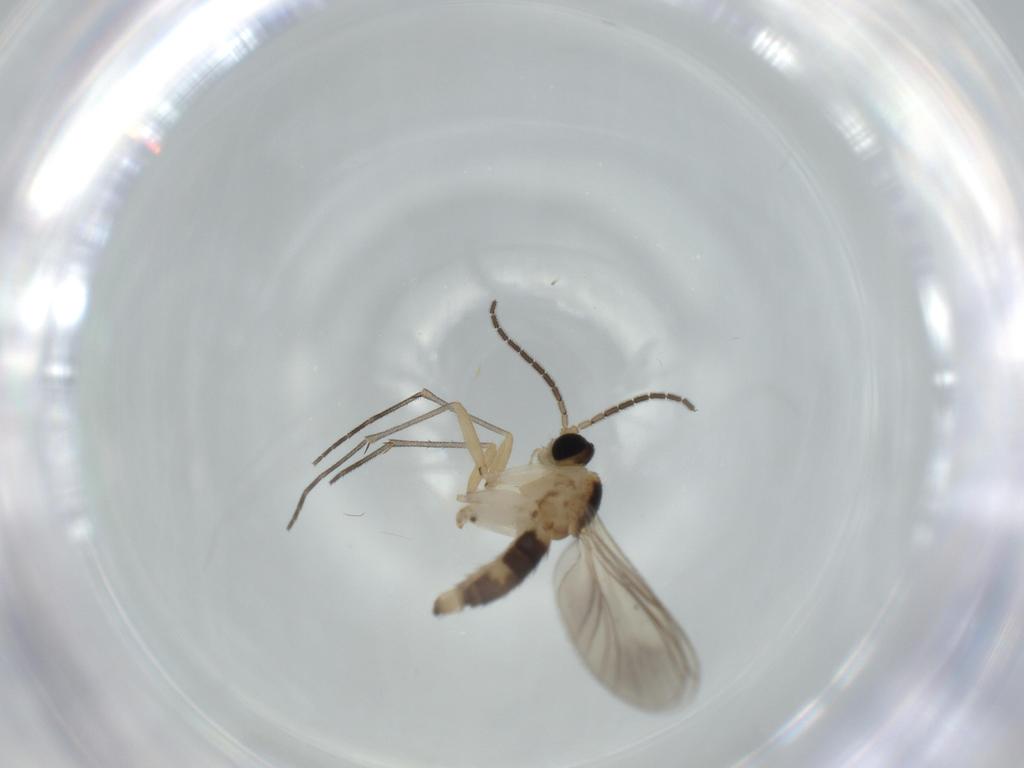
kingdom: Animalia
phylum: Arthropoda
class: Insecta
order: Diptera
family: Sciaridae
